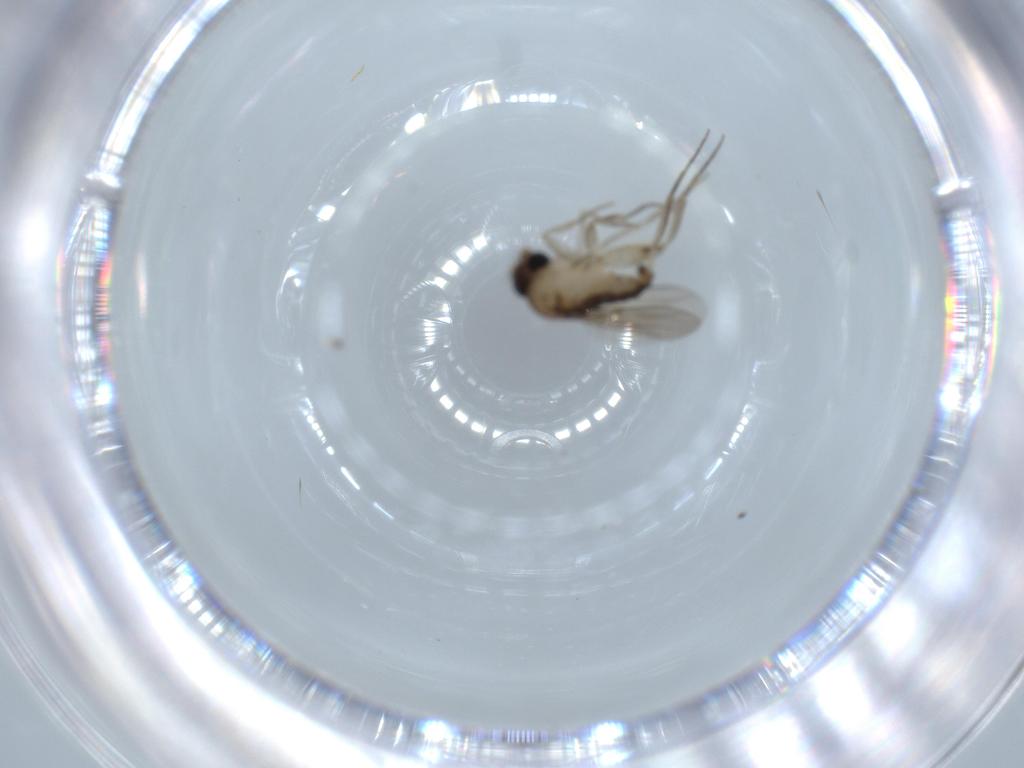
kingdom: Animalia
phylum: Arthropoda
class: Insecta
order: Diptera
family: Phoridae
